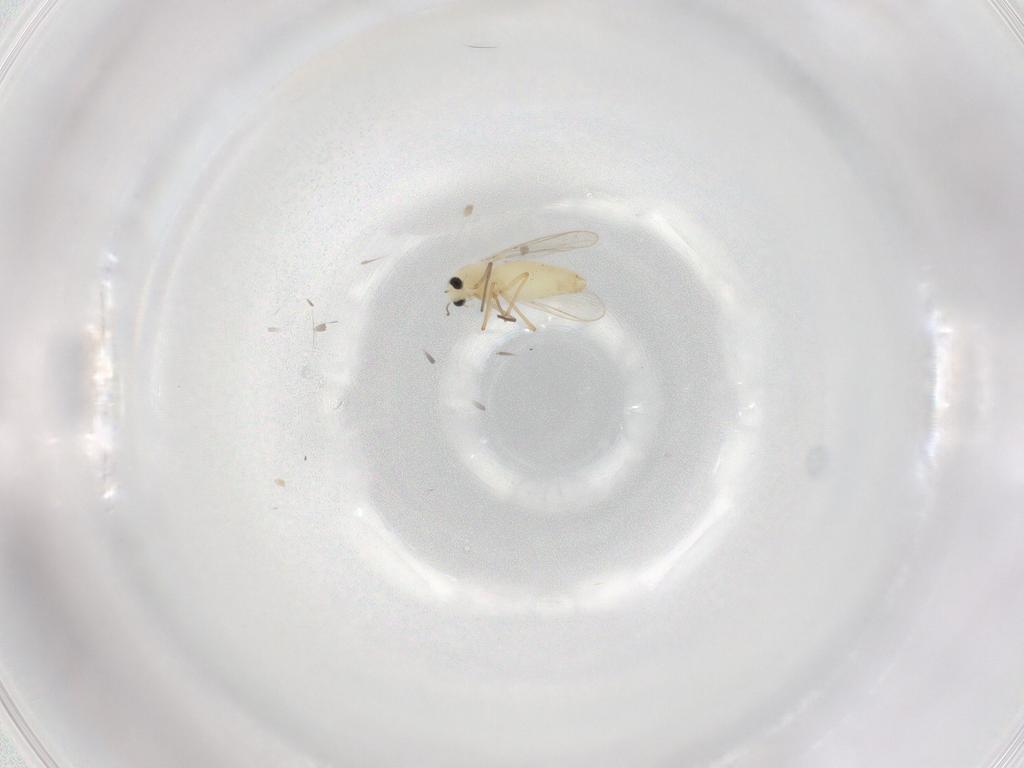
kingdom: Animalia
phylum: Arthropoda
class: Insecta
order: Diptera
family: Chironomidae
